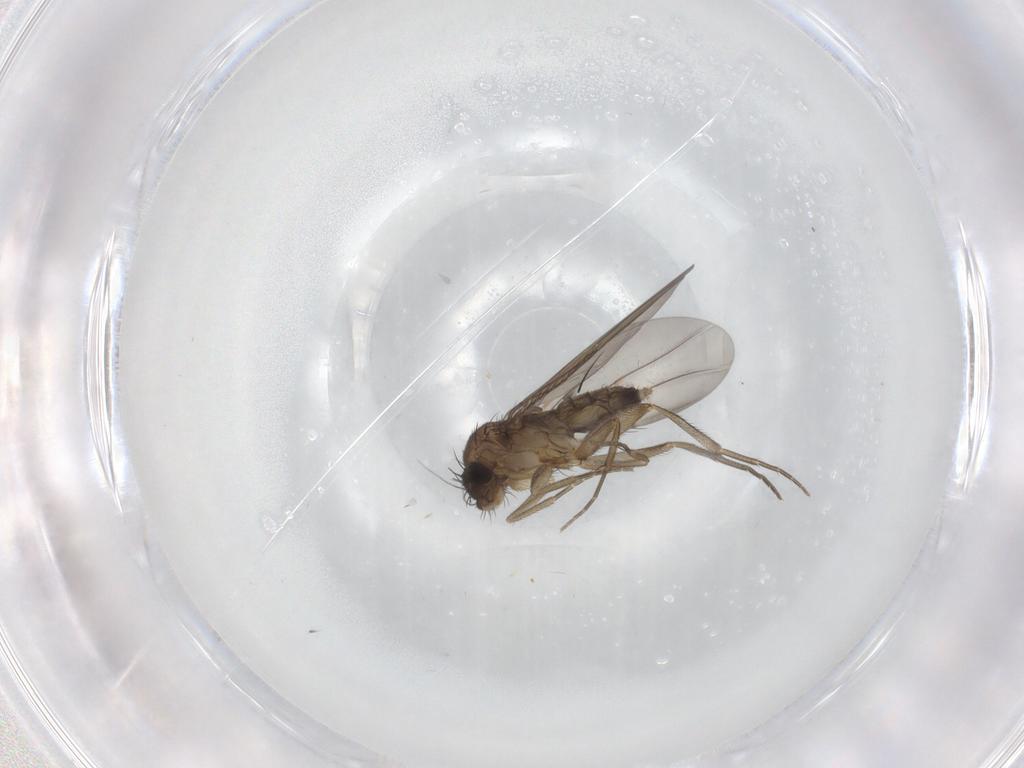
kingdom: Animalia
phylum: Arthropoda
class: Insecta
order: Diptera
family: Phoridae
